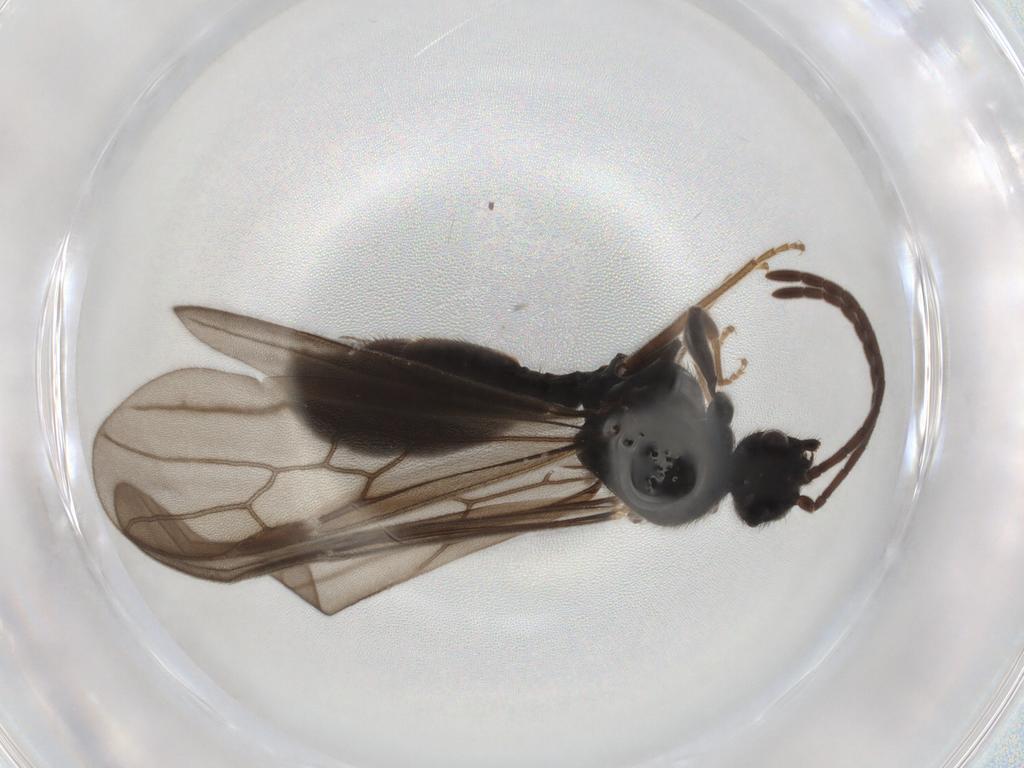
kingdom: Animalia
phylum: Arthropoda
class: Insecta
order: Hymenoptera
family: Formicidae
